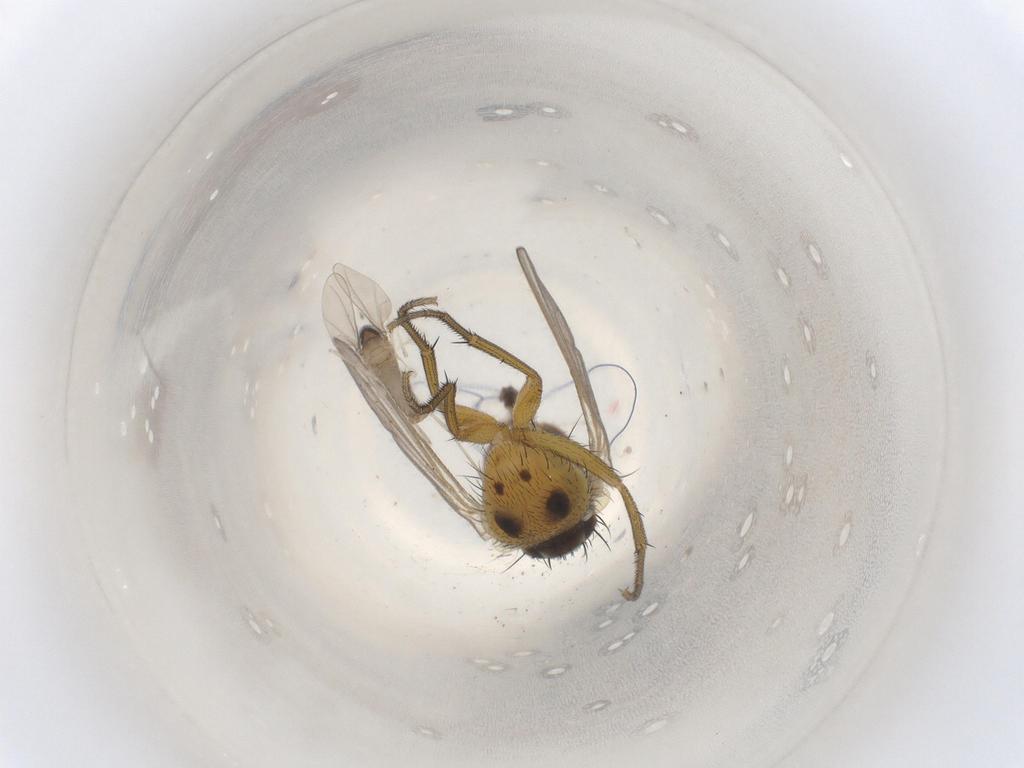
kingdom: Animalia
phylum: Arthropoda
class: Insecta
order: Diptera
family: Muscidae
